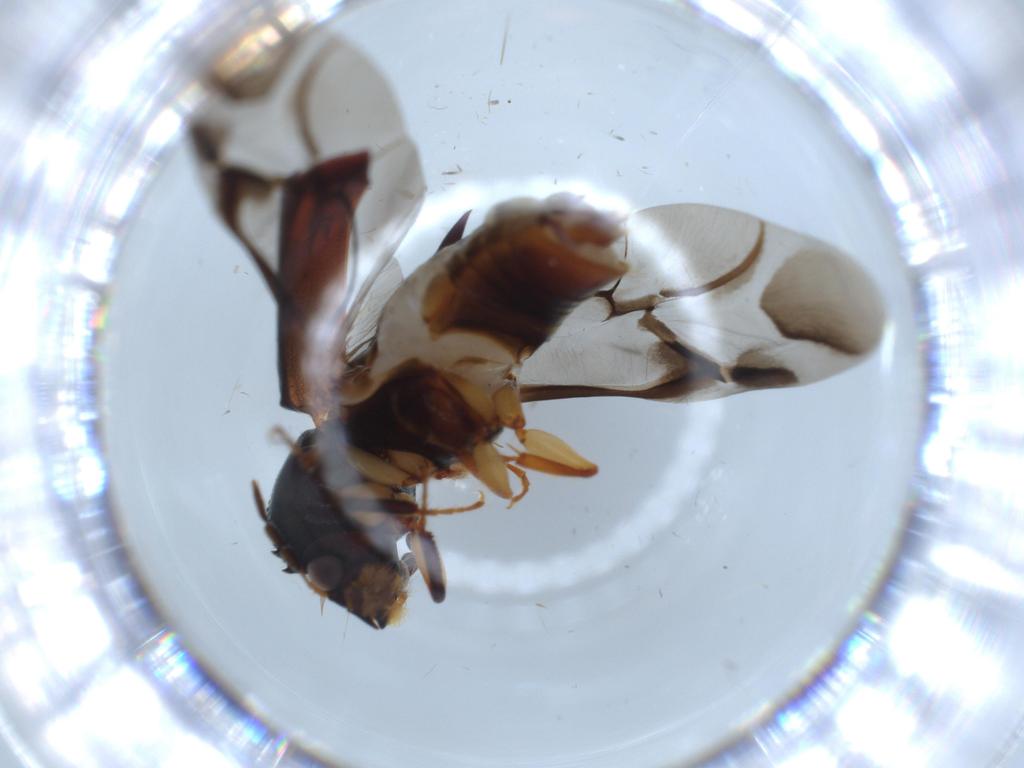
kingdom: Animalia
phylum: Arthropoda
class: Insecta
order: Coleoptera
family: Bostrichidae
